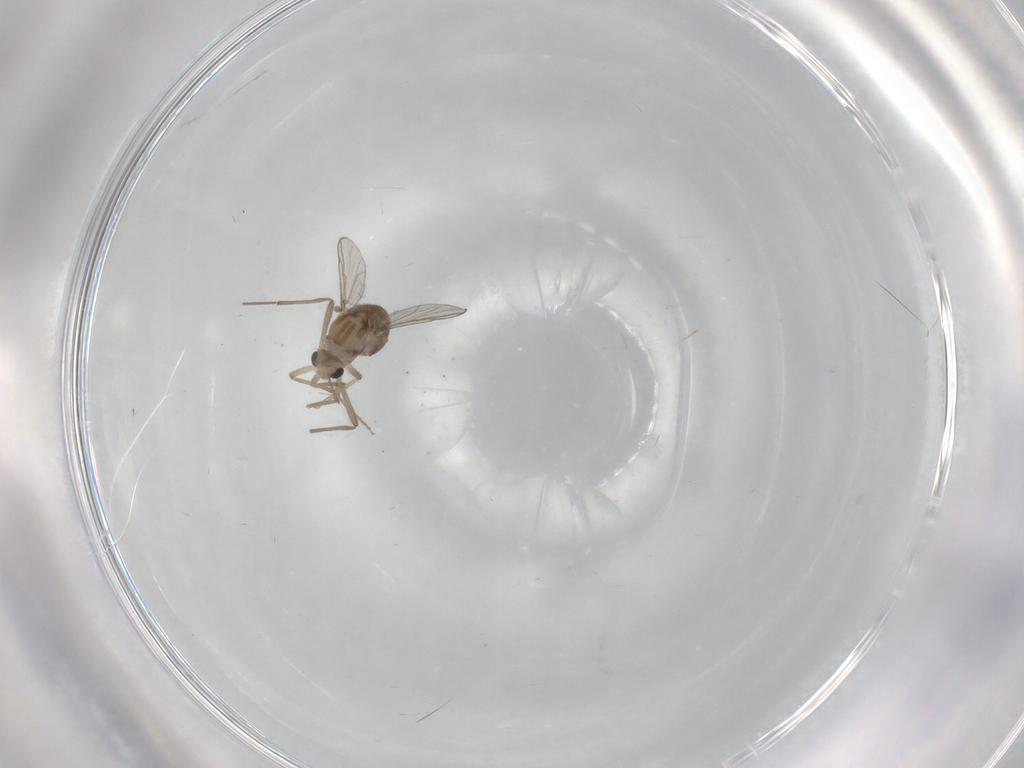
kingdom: Animalia
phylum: Arthropoda
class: Insecta
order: Diptera
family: Chironomidae
